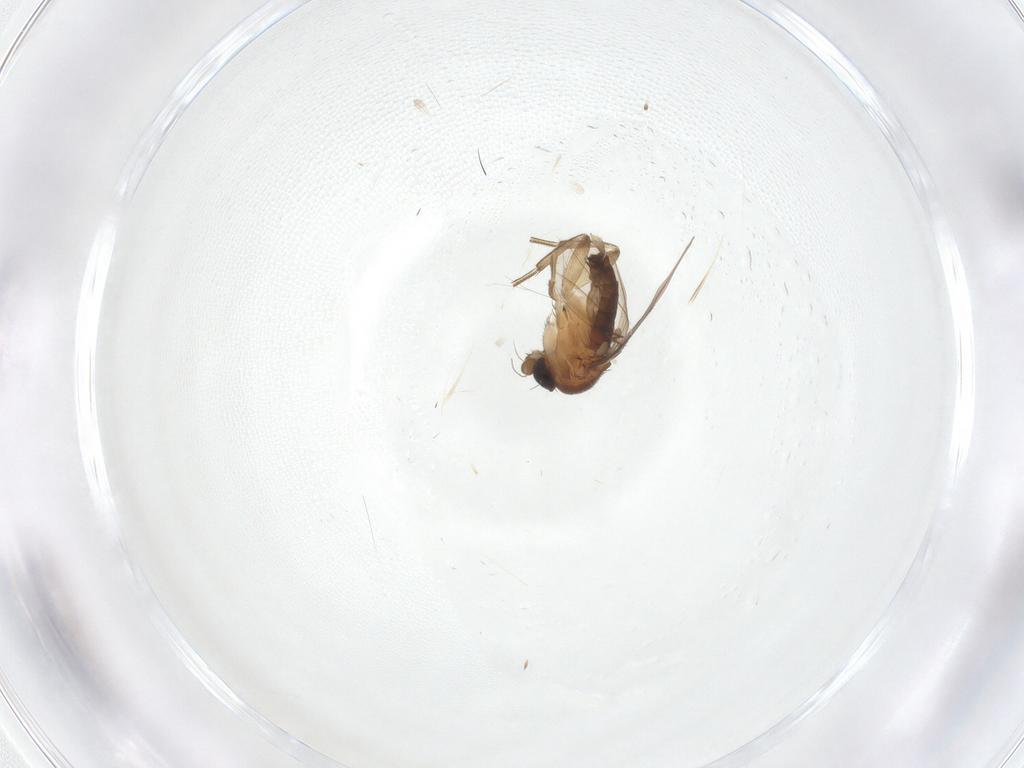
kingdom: Animalia
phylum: Arthropoda
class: Insecta
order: Diptera
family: Phoridae
